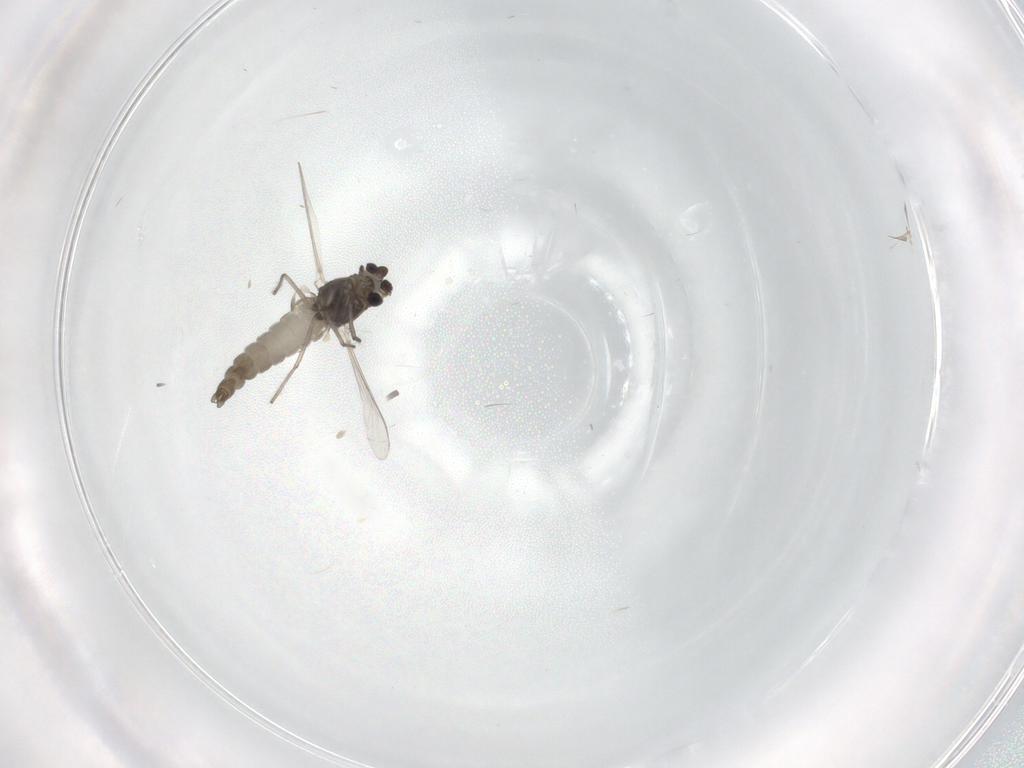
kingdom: Animalia
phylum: Arthropoda
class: Insecta
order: Diptera
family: Chironomidae
